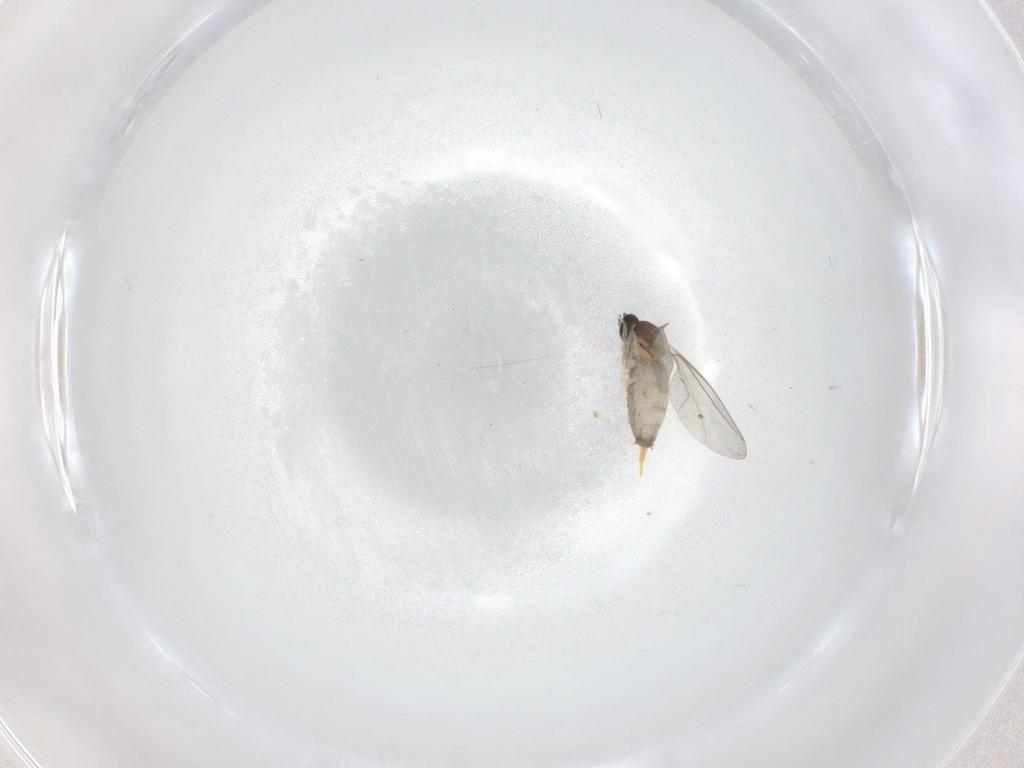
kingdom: Animalia
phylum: Arthropoda
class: Insecta
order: Diptera
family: Cecidomyiidae
